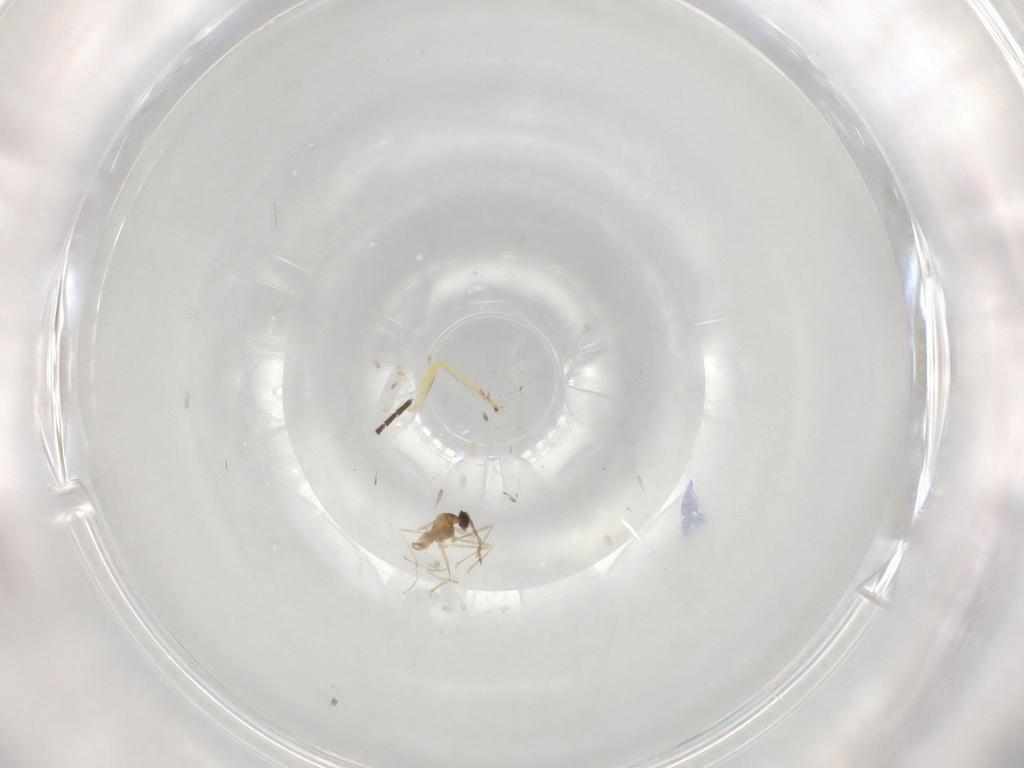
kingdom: Animalia
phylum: Arthropoda
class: Insecta
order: Diptera
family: Cecidomyiidae
